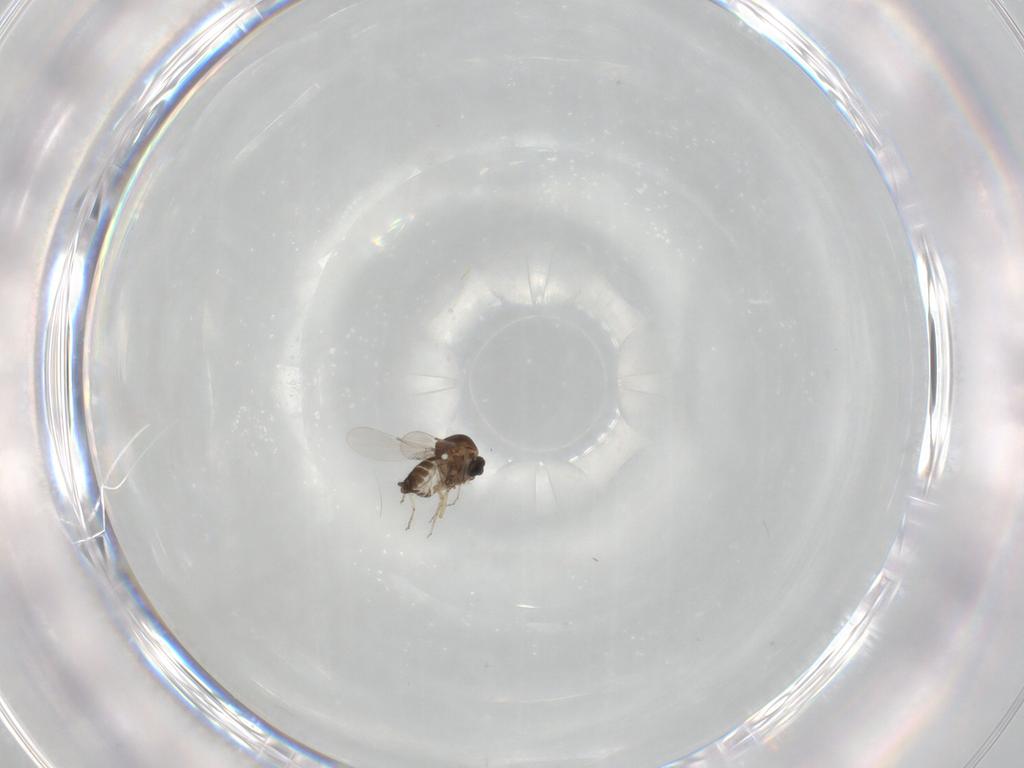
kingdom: Animalia
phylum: Arthropoda
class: Insecta
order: Diptera
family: Ceratopogonidae
